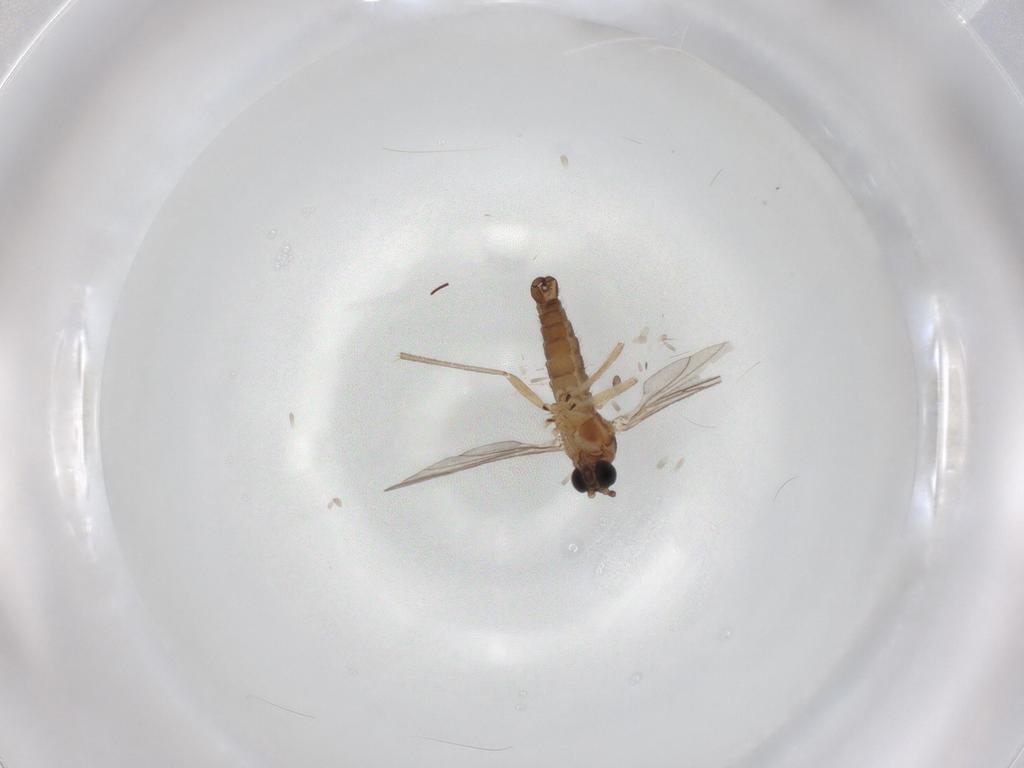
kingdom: Animalia
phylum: Arthropoda
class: Insecta
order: Diptera
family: Sciaridae
